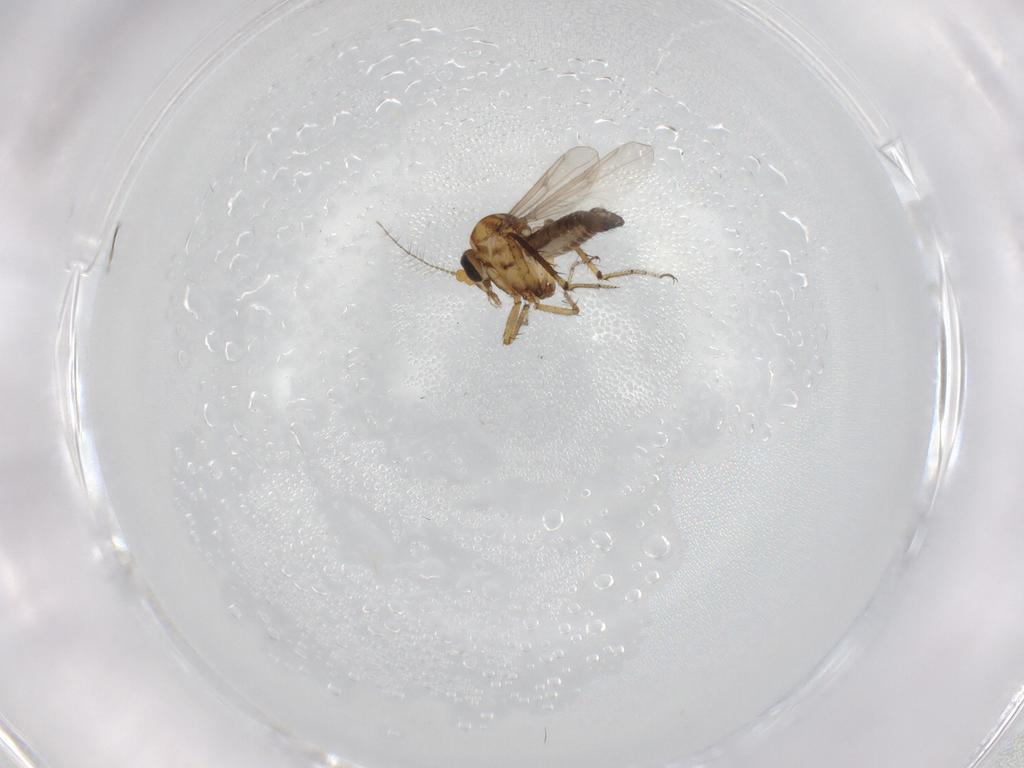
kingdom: Animalia
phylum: Arthropoda
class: Insecta
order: Diptera
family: Ceratopogonidae
